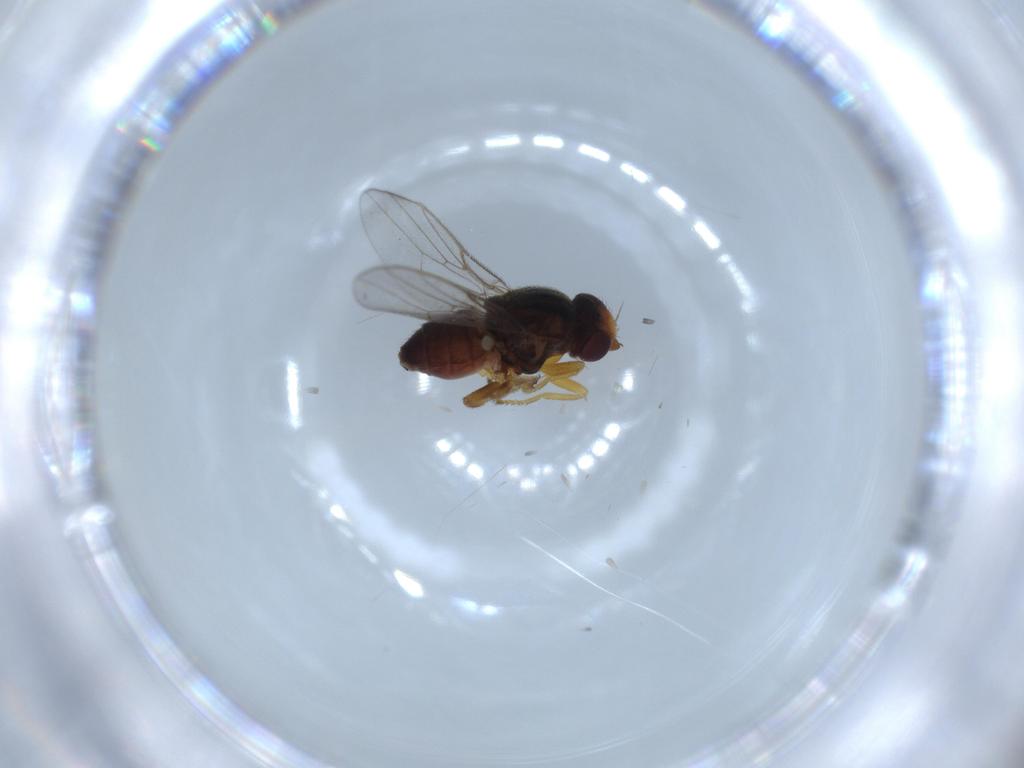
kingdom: Animalia
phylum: Arthropoda
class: Insecta
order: Diptera
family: Chloropidae
